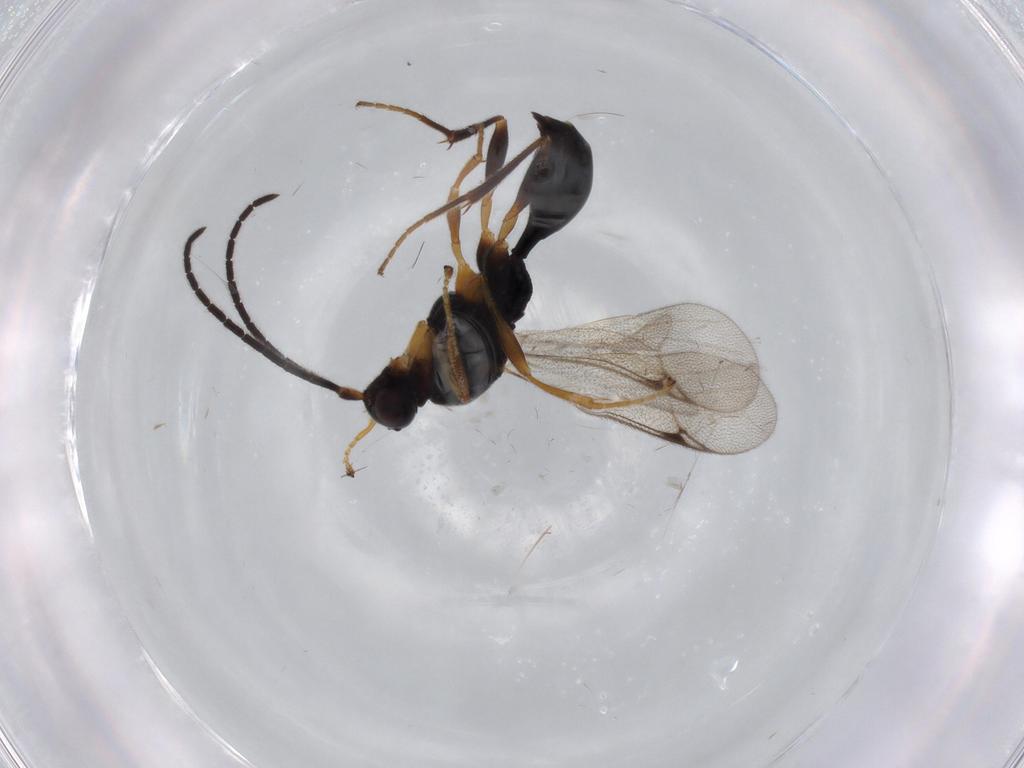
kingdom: Animalia
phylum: Arthropoda
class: Insecta
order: Hymenoptera
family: Proctotrupidae
